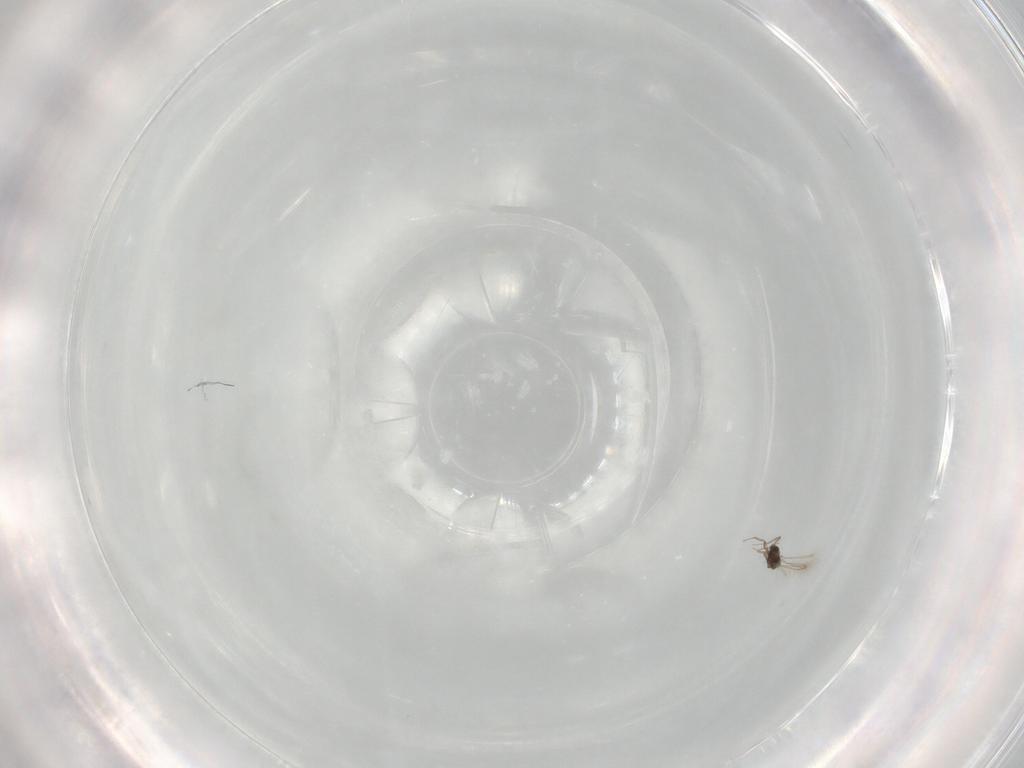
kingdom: Animalia
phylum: Arthropoda
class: Insecta
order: Hymenoptera
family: Mymaridae
